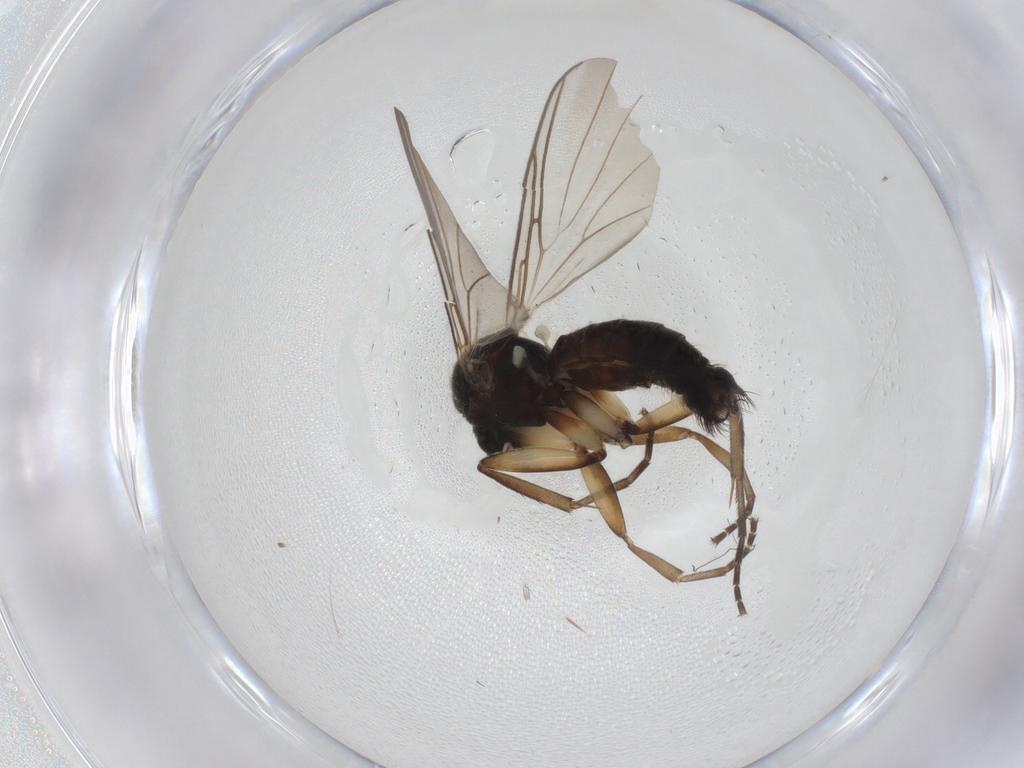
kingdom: Animalia
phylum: Arthropoda
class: Insecta
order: Diptera
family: Mycetophilidae
